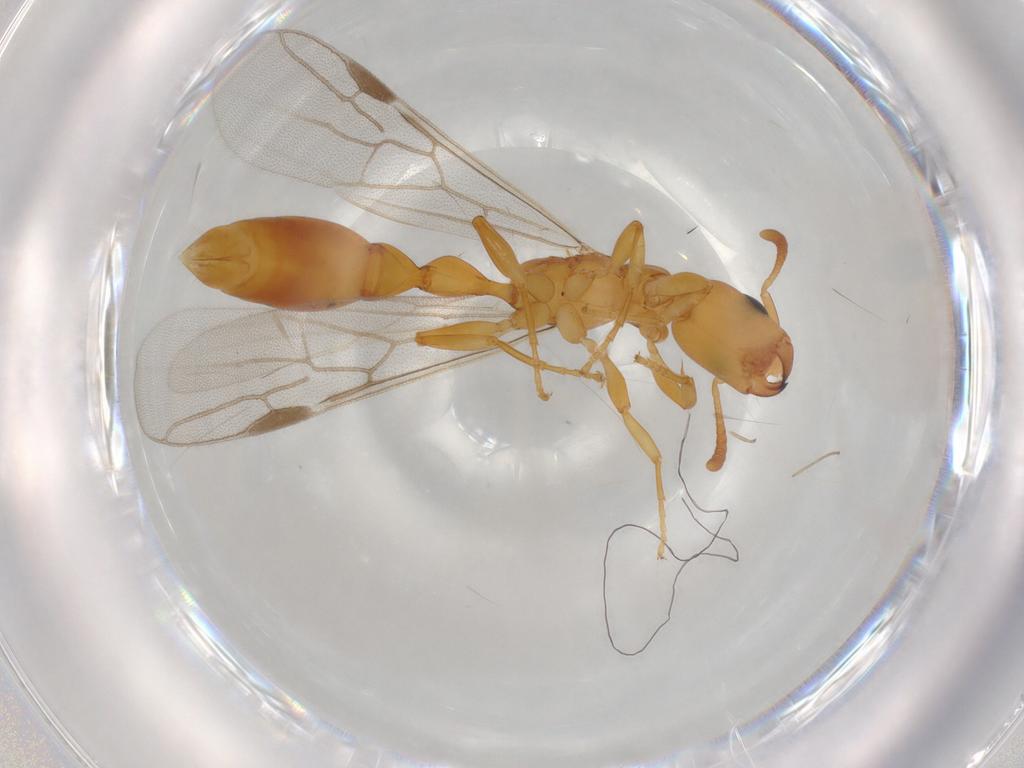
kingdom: Animalia
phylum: Arthropoda
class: Insecta
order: Hymenoptera
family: Formicidae
